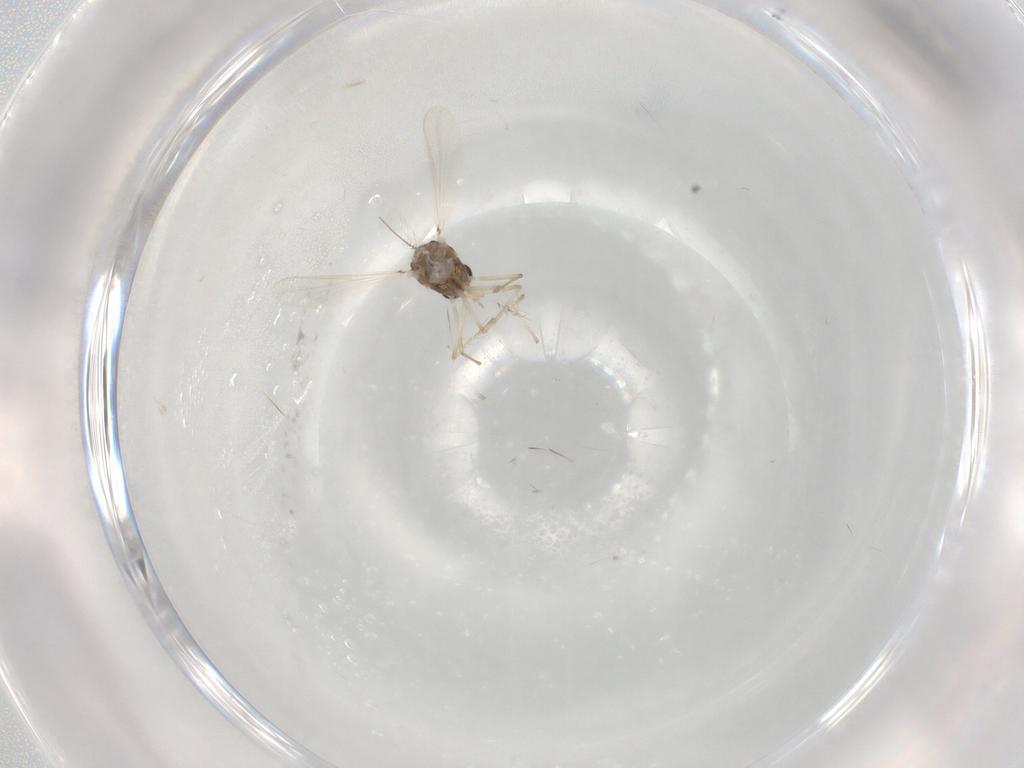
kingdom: Animalia
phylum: Arthropoda
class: Insecta
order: Diptera
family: Chironomidae
